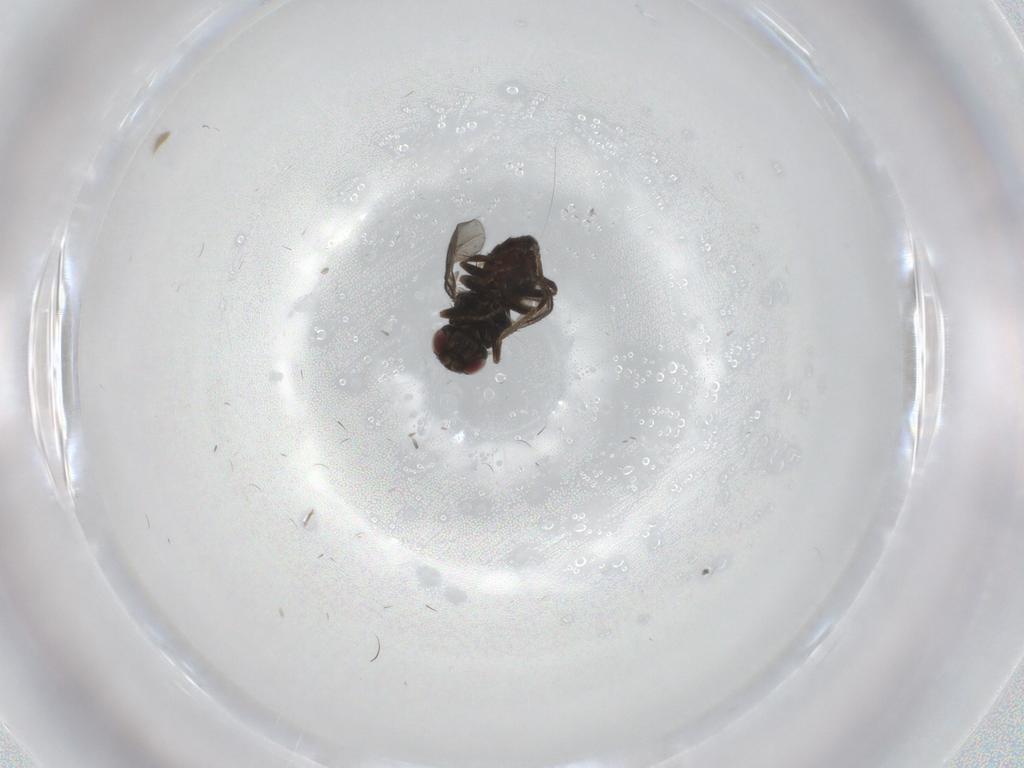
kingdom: Animalia
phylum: Arthropoda
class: Insecta
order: Diptera
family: Chloropidae
